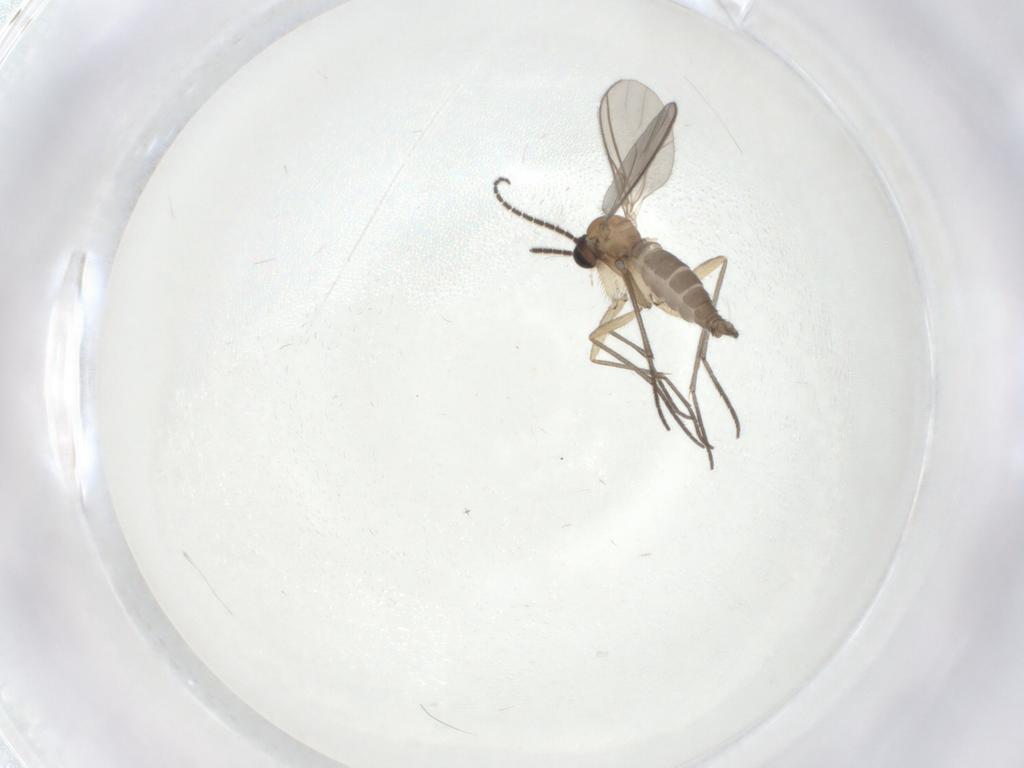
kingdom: Animalia
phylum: Arthropoda
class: Insecta
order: Diptera
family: Sciaridae
